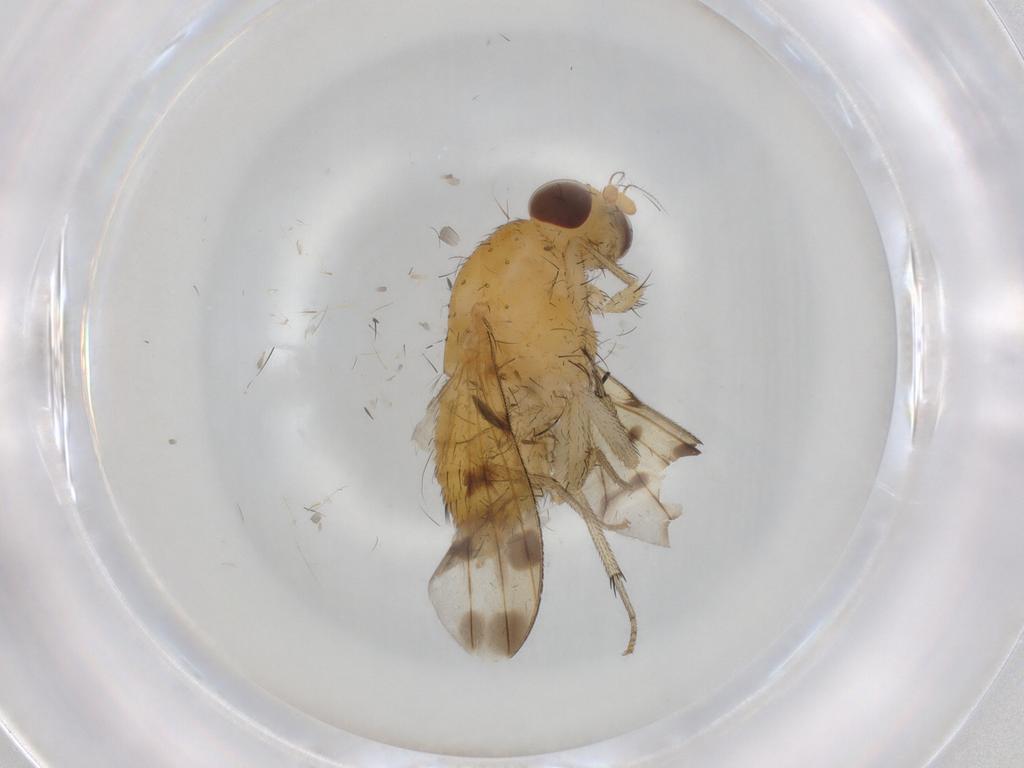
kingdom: Animalia
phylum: Arthropoda
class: Insecta
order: Diptera
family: Lauxaniidae
